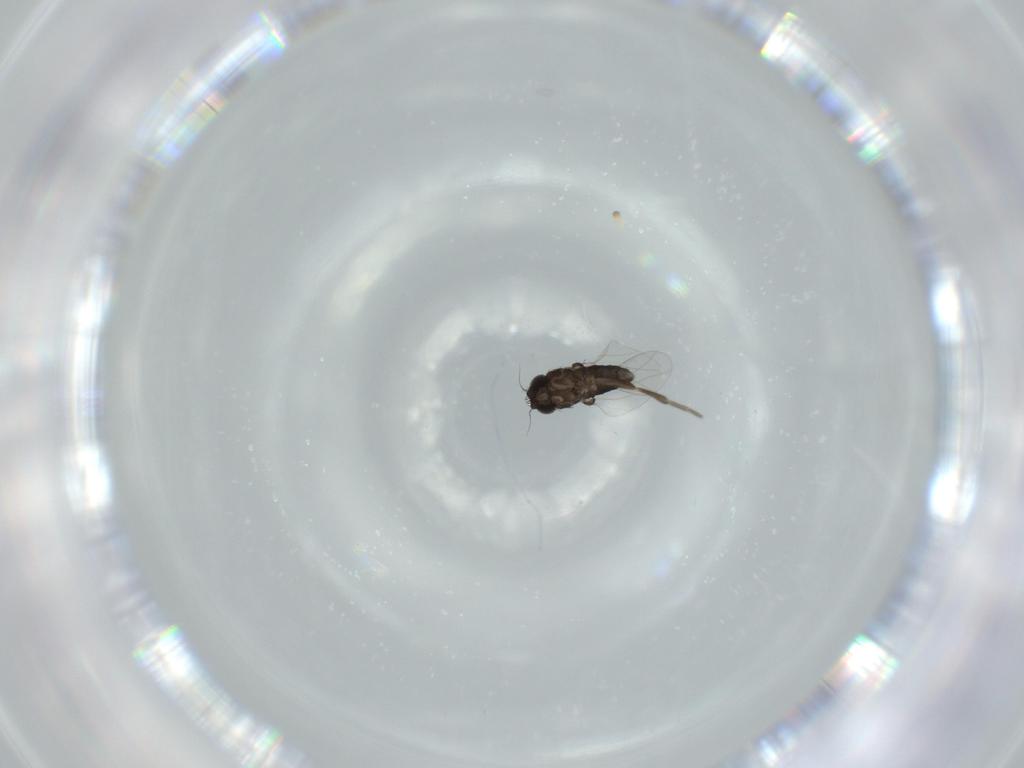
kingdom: Animalia
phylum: Arthropoda
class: Insecta
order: Diptera
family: Phoridae
